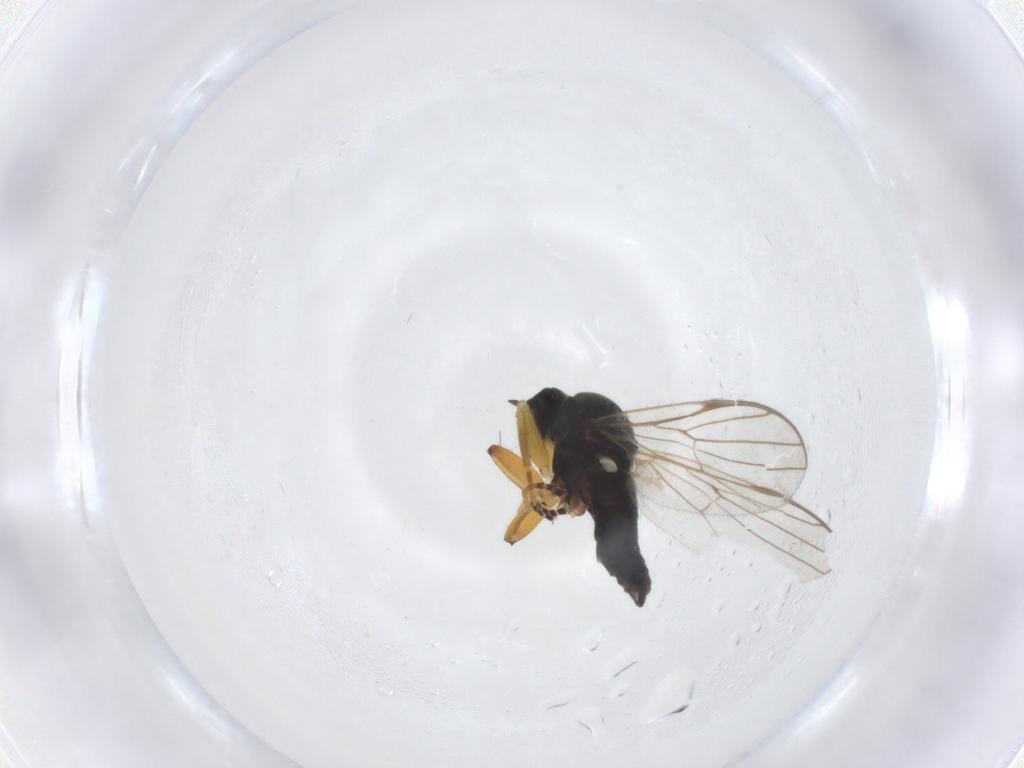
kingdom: Animalia
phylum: Arthropoda
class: Insecta
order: Diptera
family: Hybotidae
